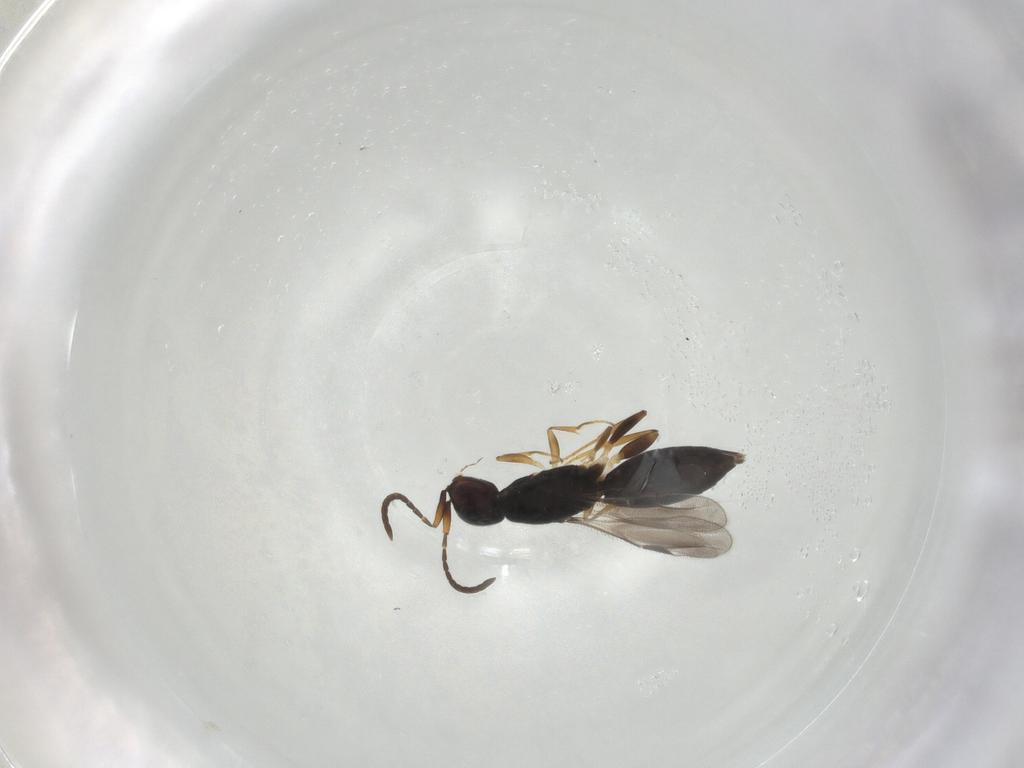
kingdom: Animalia
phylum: Arthropoda
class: Insecta
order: Hymenoptera
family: Megaspilidae
